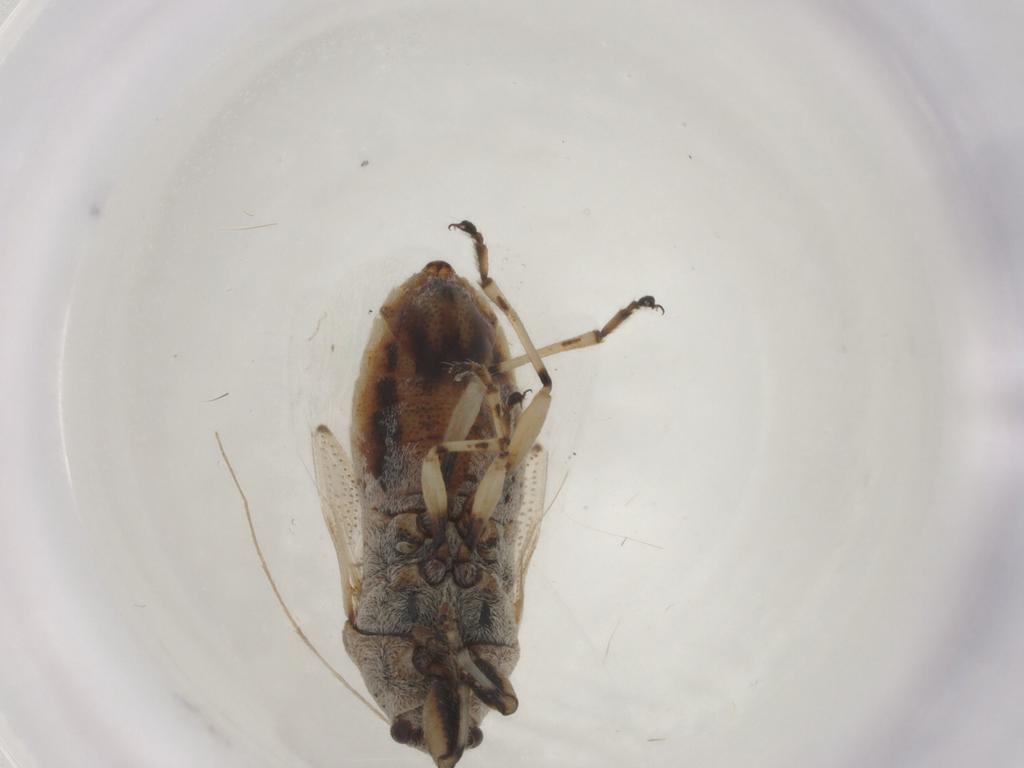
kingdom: Animalia
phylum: Arthropoda
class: Insecta
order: Hemiptera
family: Pachygronthidae
